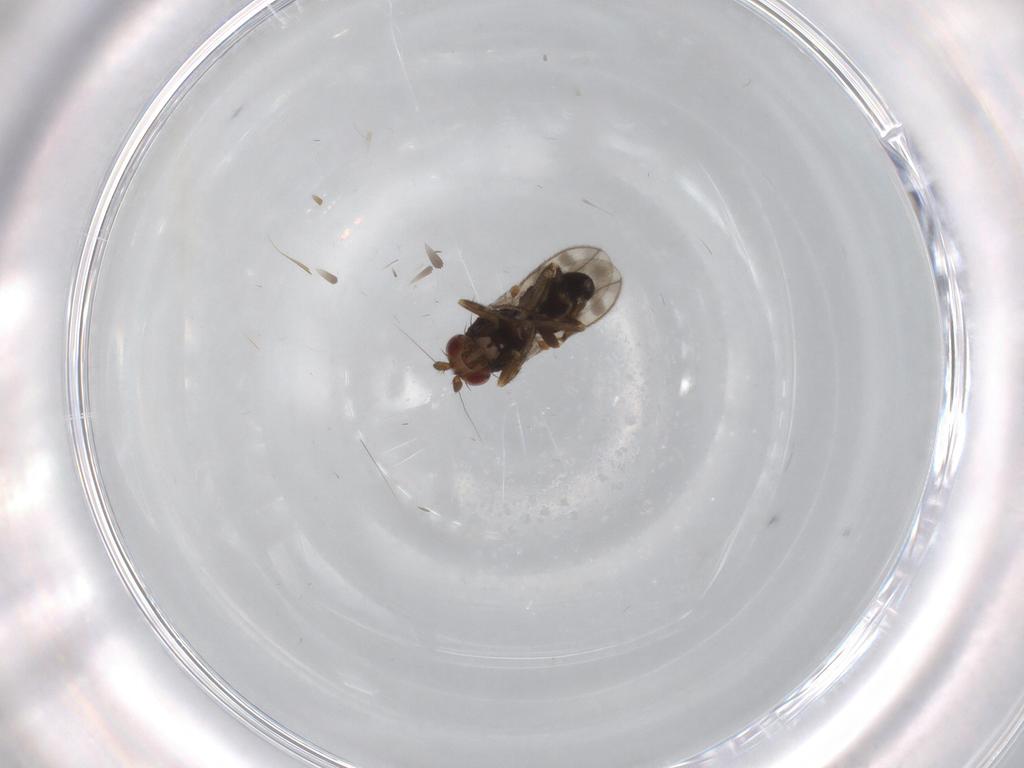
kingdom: Animalia
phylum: Arthropoda
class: Insecta
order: Diptera
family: Sphaeroceridae
